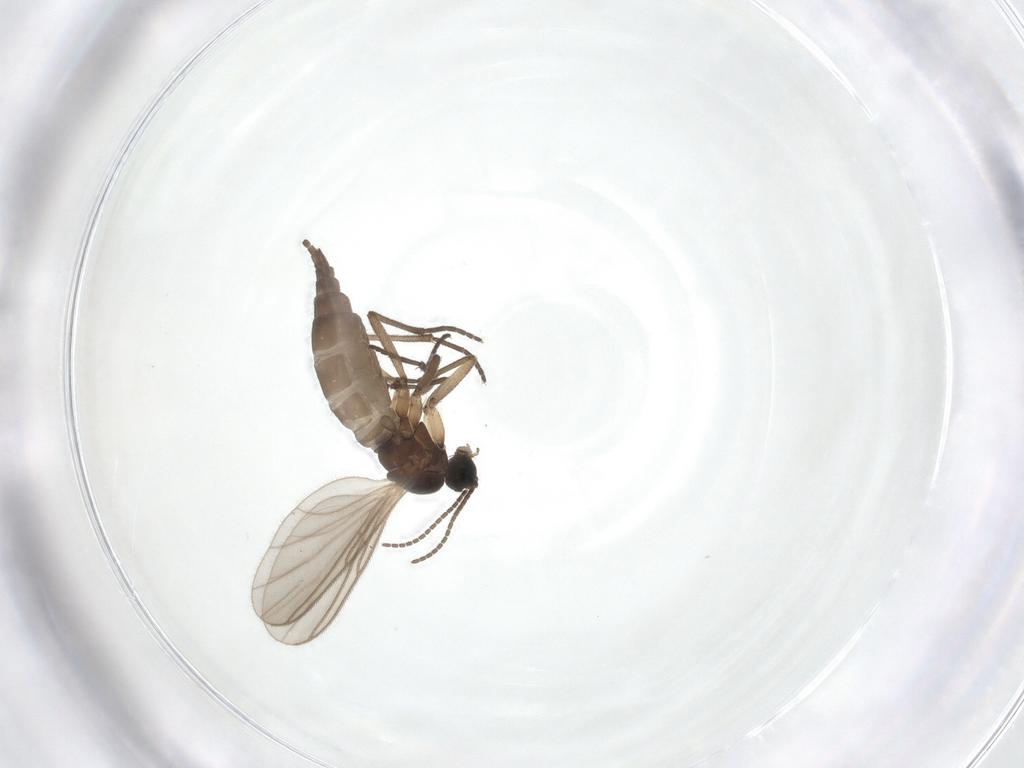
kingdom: Animalia
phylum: Arthropoda
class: Insecta
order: Diptera
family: Sciaridae
